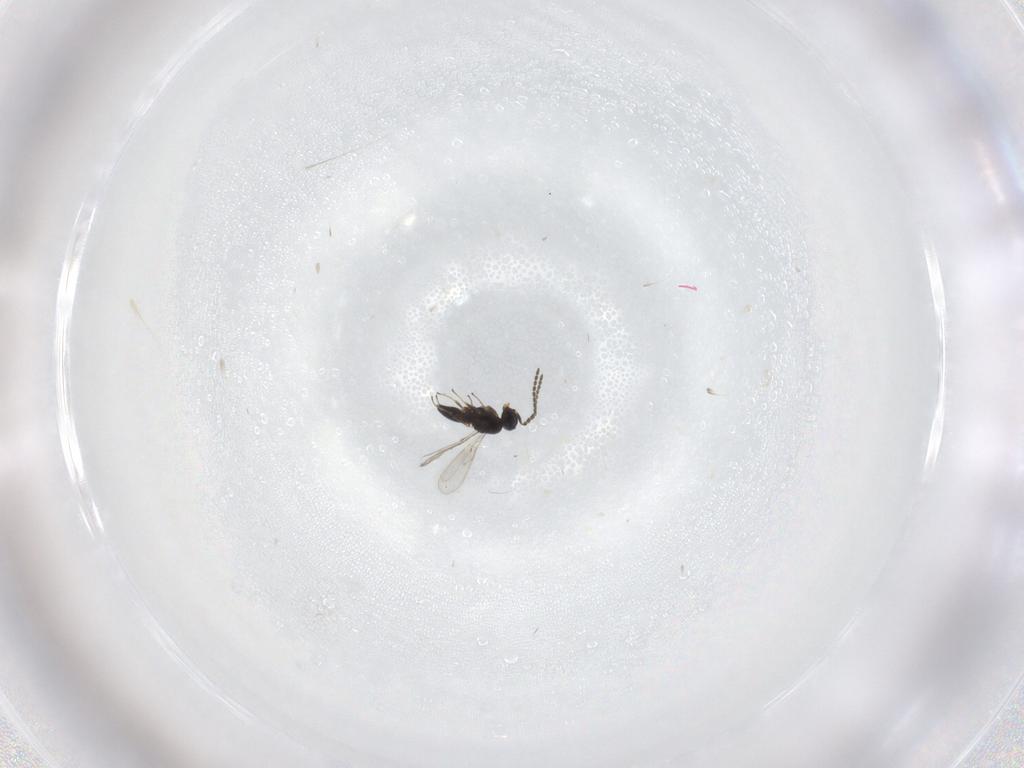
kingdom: Animalia
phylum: Arthropoda
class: Insecta
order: Hymenoptera
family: Scelionidae
